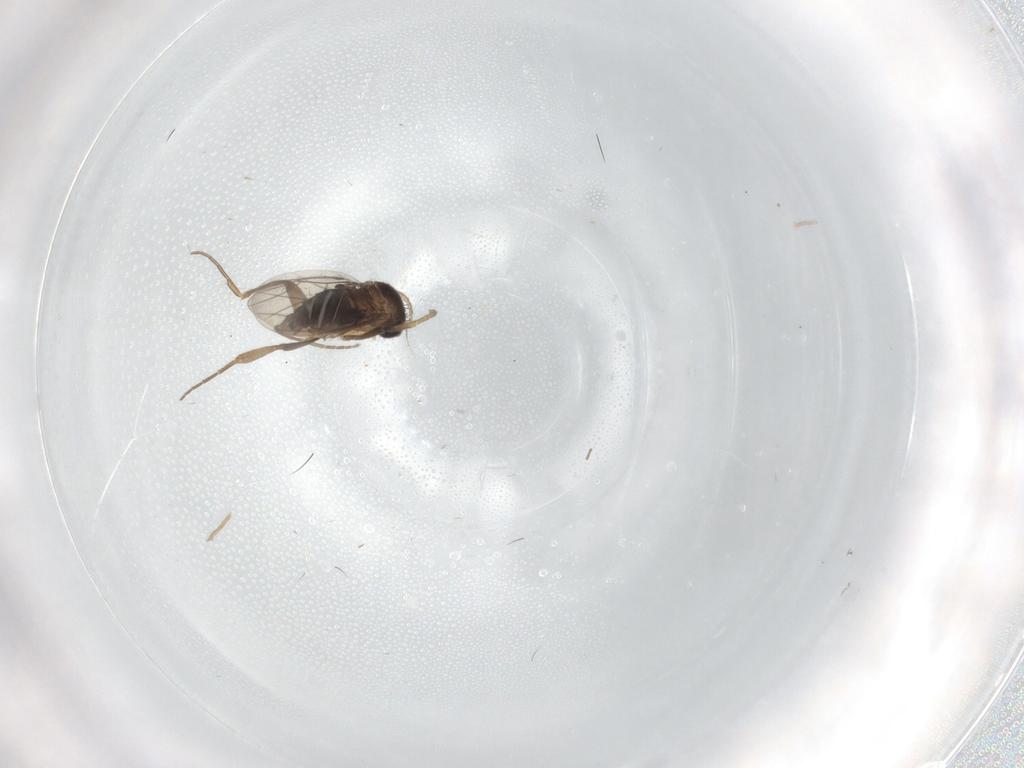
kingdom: Animalia
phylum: Arthropoda
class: Insecta
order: Diptera
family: Phoridae
